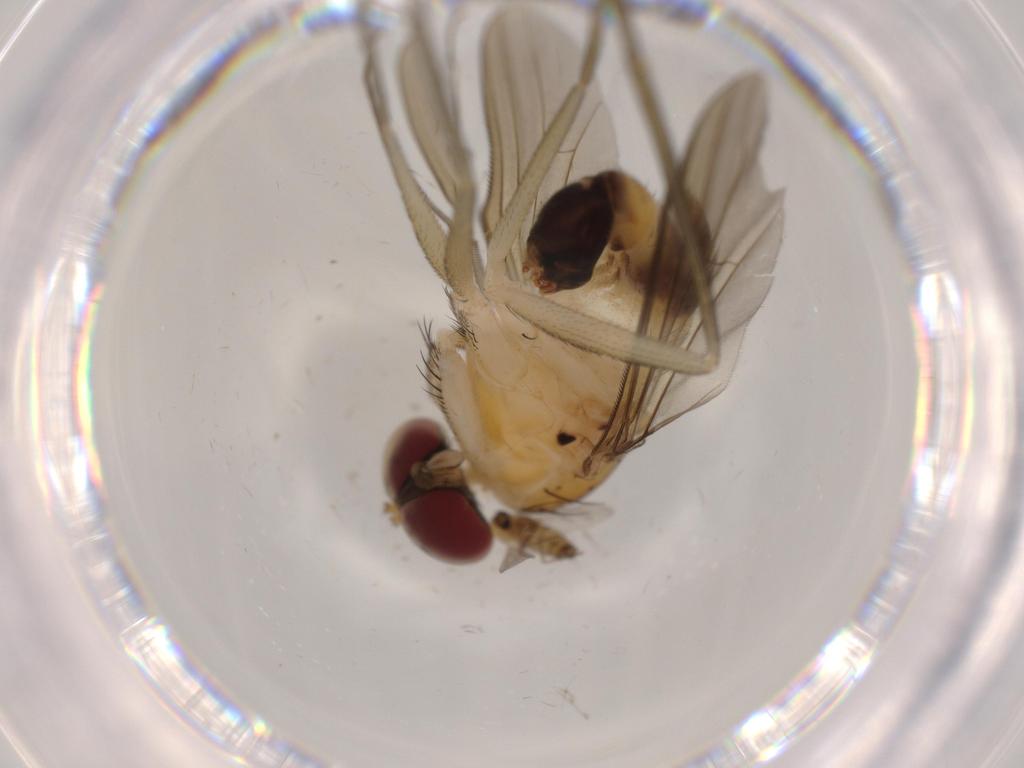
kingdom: Animalia
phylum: Arthropoda
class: Insecta
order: Diptera
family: Dolichopodidae
